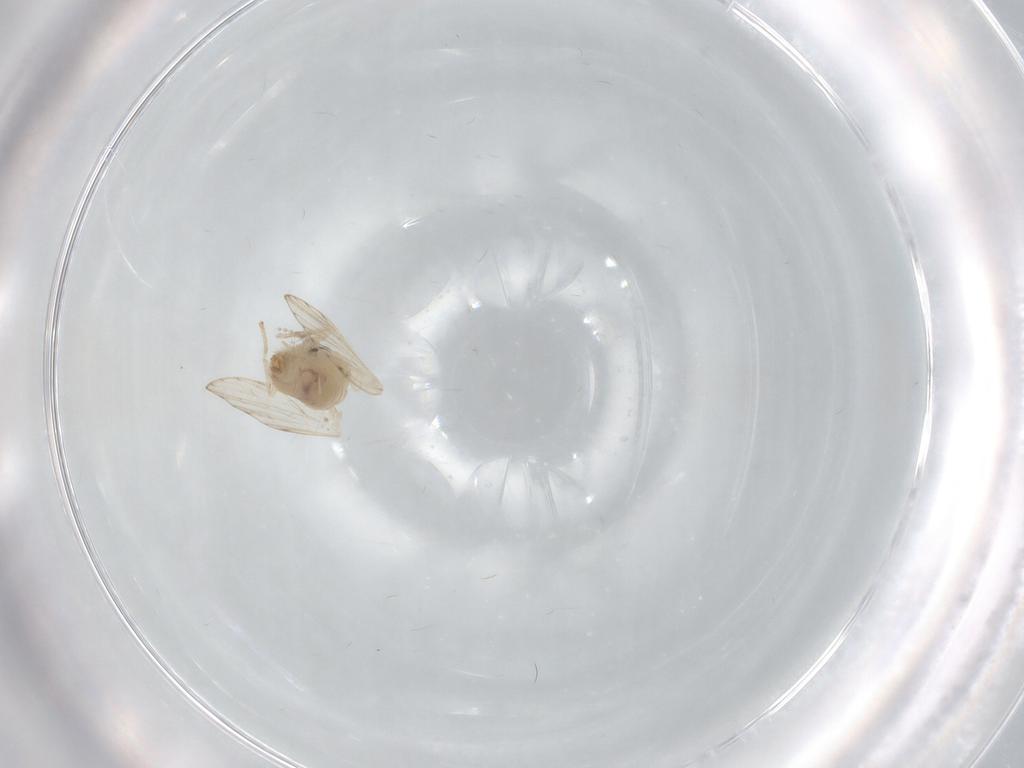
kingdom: Animalia
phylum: Arthropoda
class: Insecta
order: Diptera
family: Psychodidae
